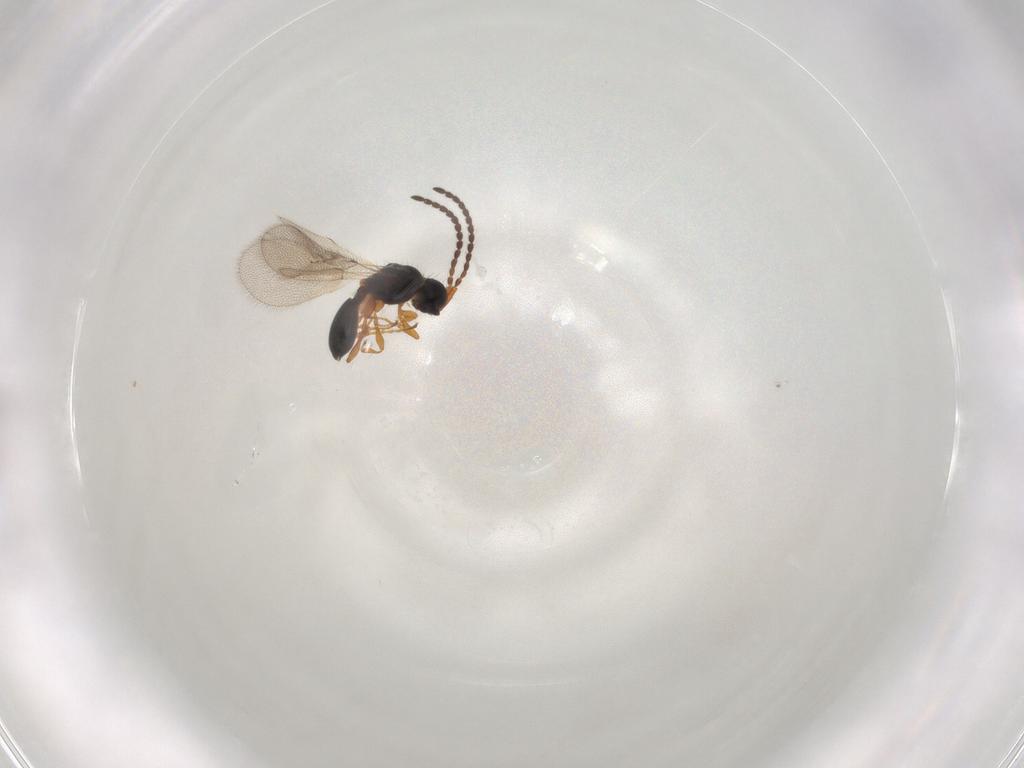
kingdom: Animalia
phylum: Arthropoda
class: Insecta
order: Hymenoptera
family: Diapriidae
